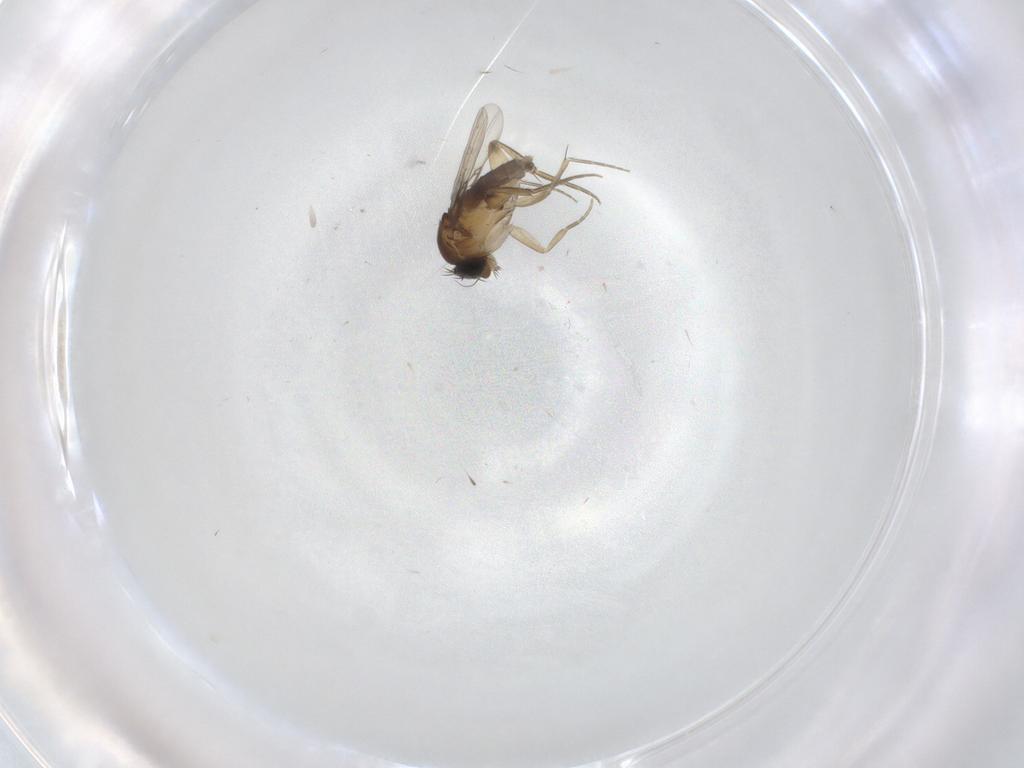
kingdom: Animalia
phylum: Arthropoda
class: Insecta
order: Diptera
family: Phoridae
